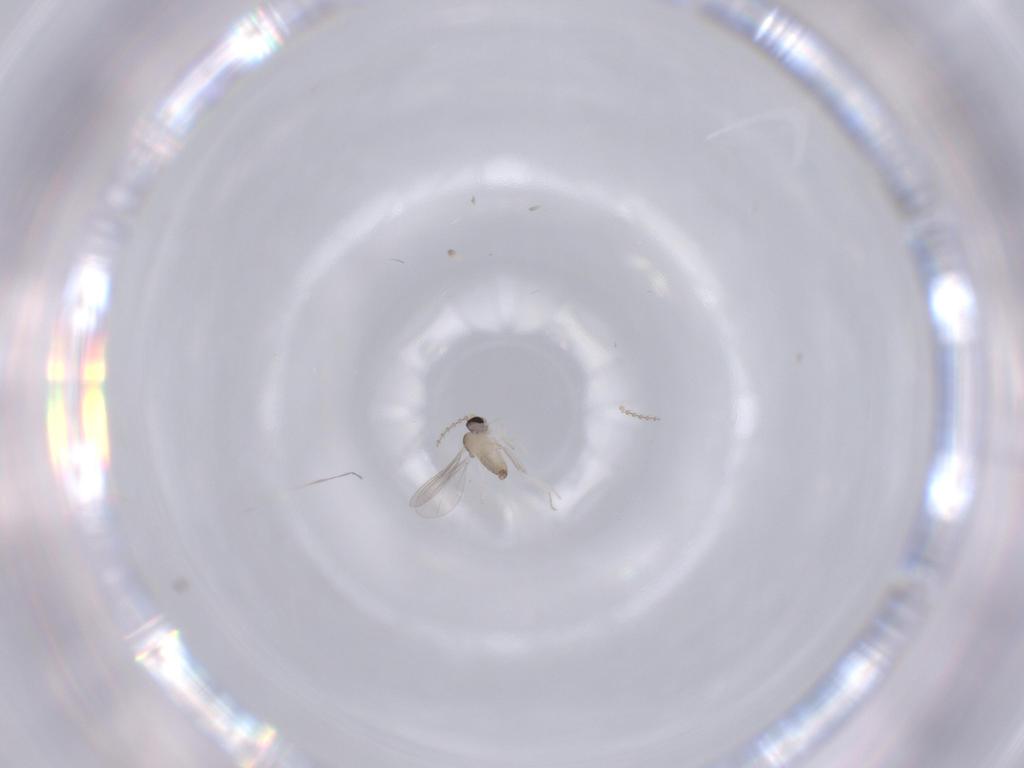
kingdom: Animalia
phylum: Arthropoda
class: Insecta
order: Diptera
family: Cecidomyiidae
